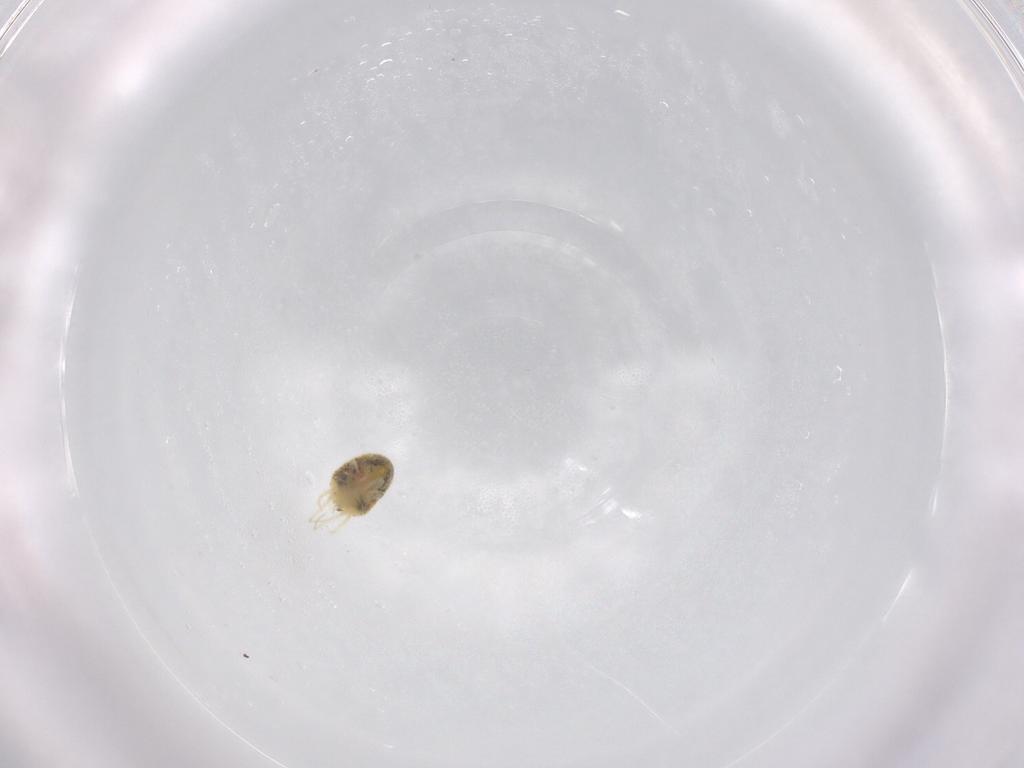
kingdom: Animalia
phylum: Arthropoda
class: Arachnida
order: Trombidiformes
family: Tetranychidae
